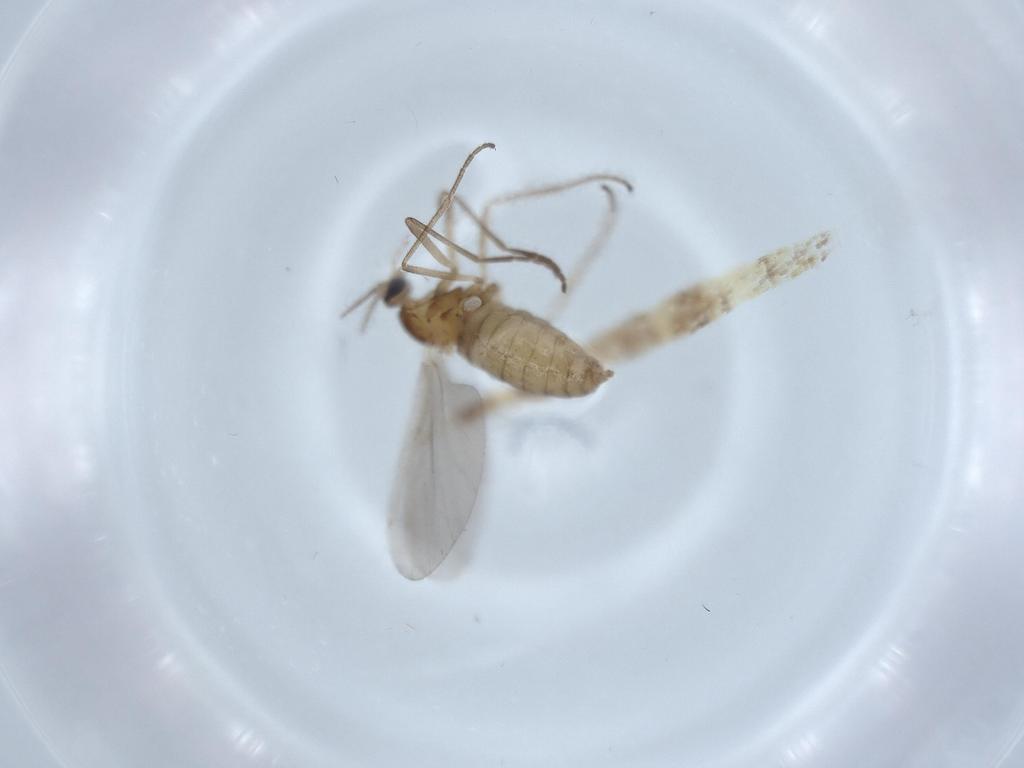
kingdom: Animalia
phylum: Arthropoda
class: Insecta
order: Diptera
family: Cecidomyiidae
